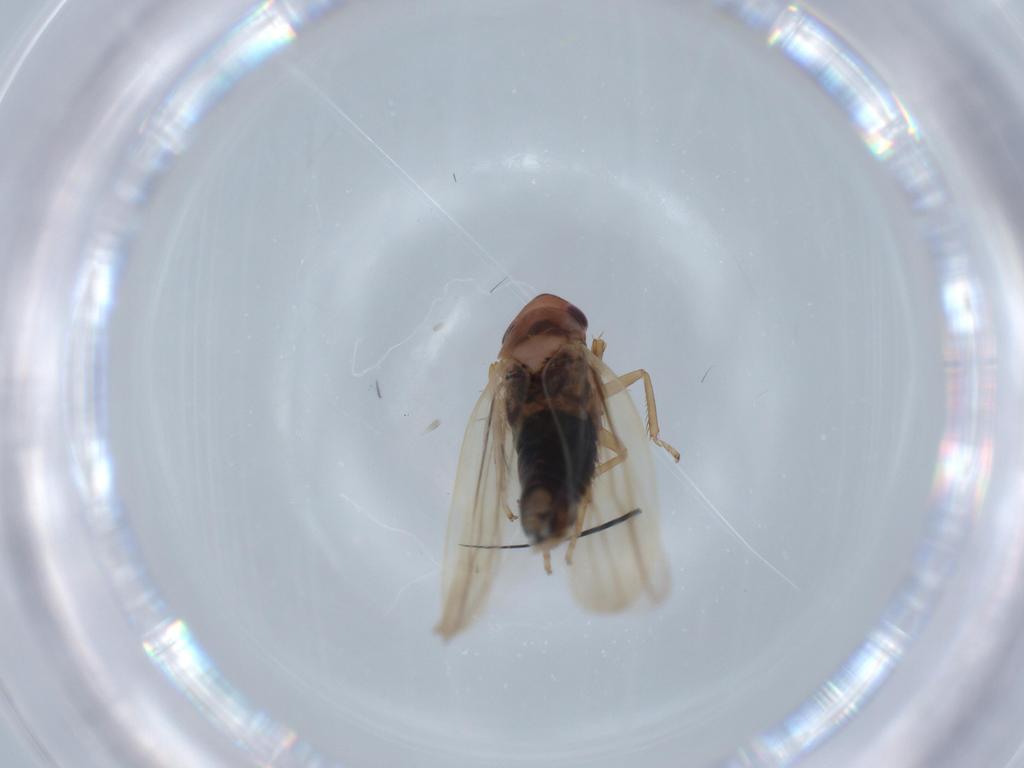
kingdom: Animalia
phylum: Arthropoda
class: Insecta
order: Hemiptera
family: Cicadellidae
